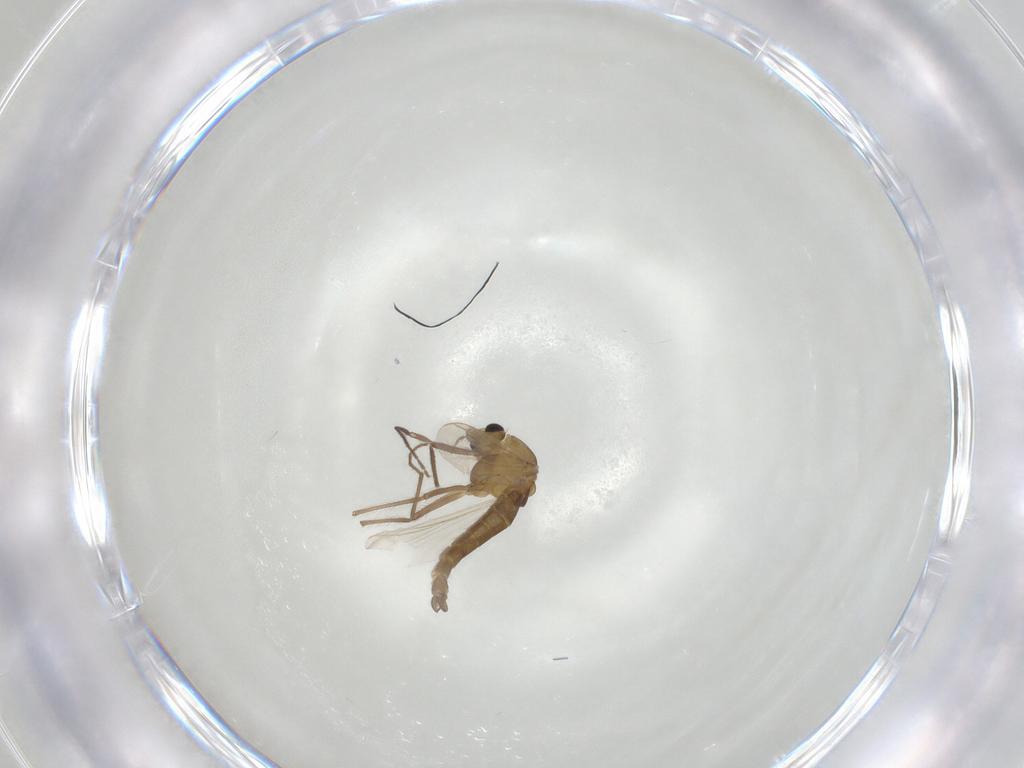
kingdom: Animalia
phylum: Arthropoda
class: Insecta
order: Diptera
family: Chironomidae
